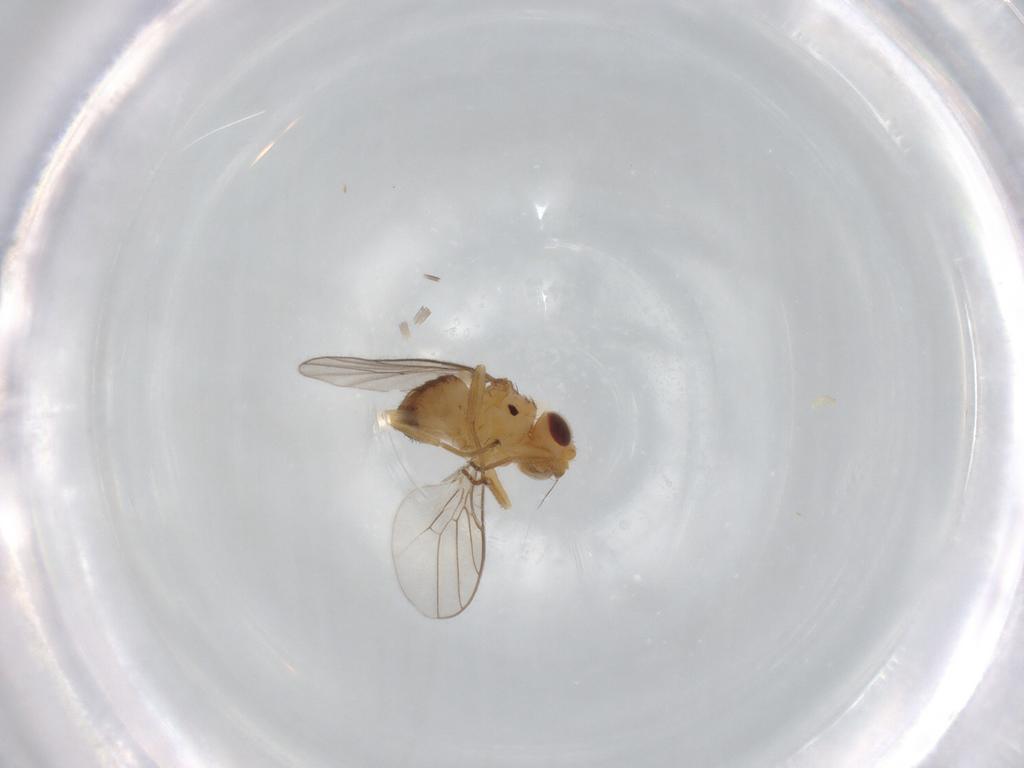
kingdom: Animalia
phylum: Arthropoda
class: Insecta
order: Diptera
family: Chloropidae
